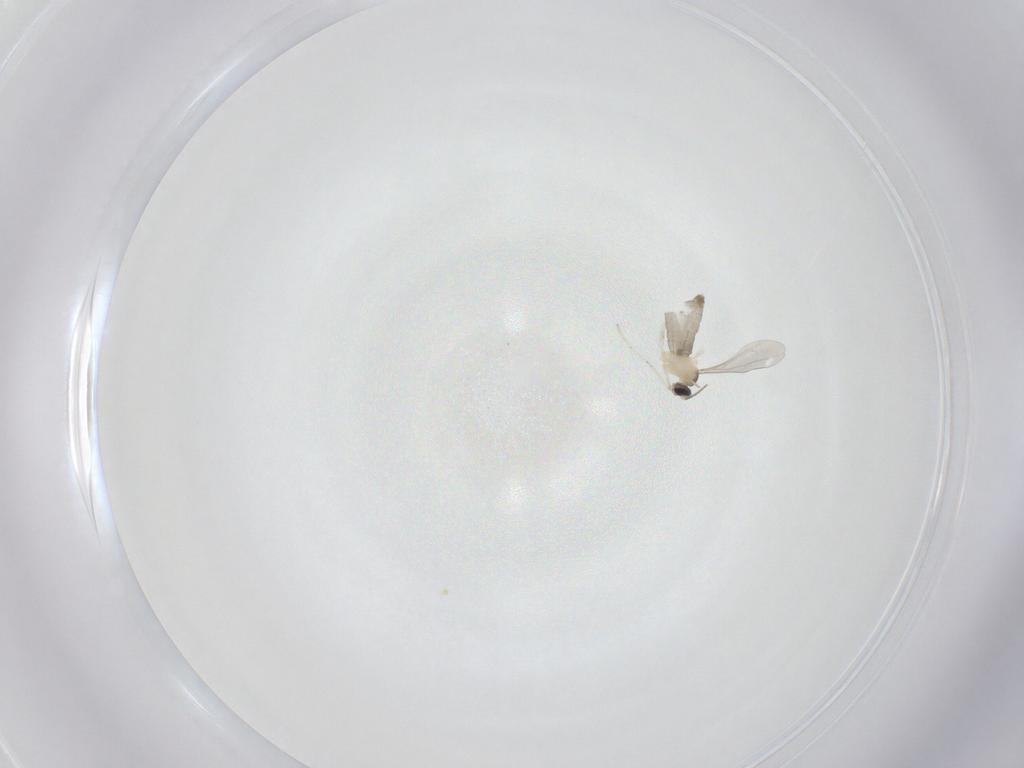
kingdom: Animalia
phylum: Arthropoda
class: Insecta
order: Diptera
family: Cecidomyiidae
